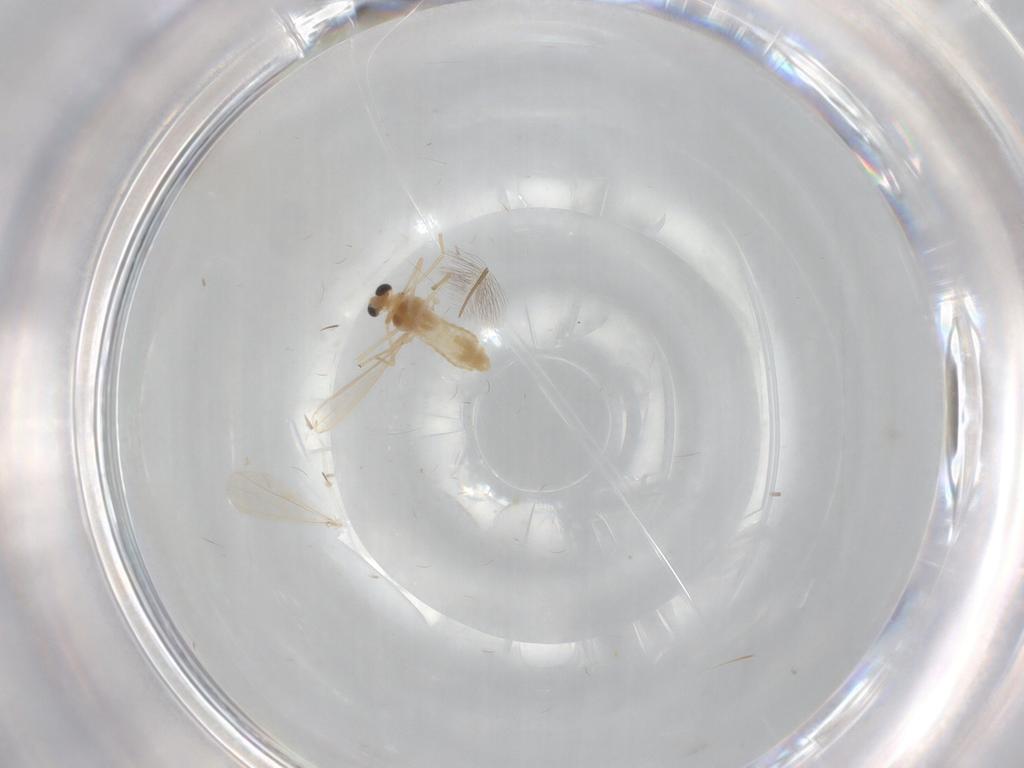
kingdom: Animalia
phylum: Arthropoda
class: Insecta
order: Diptera
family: Chironomidae
